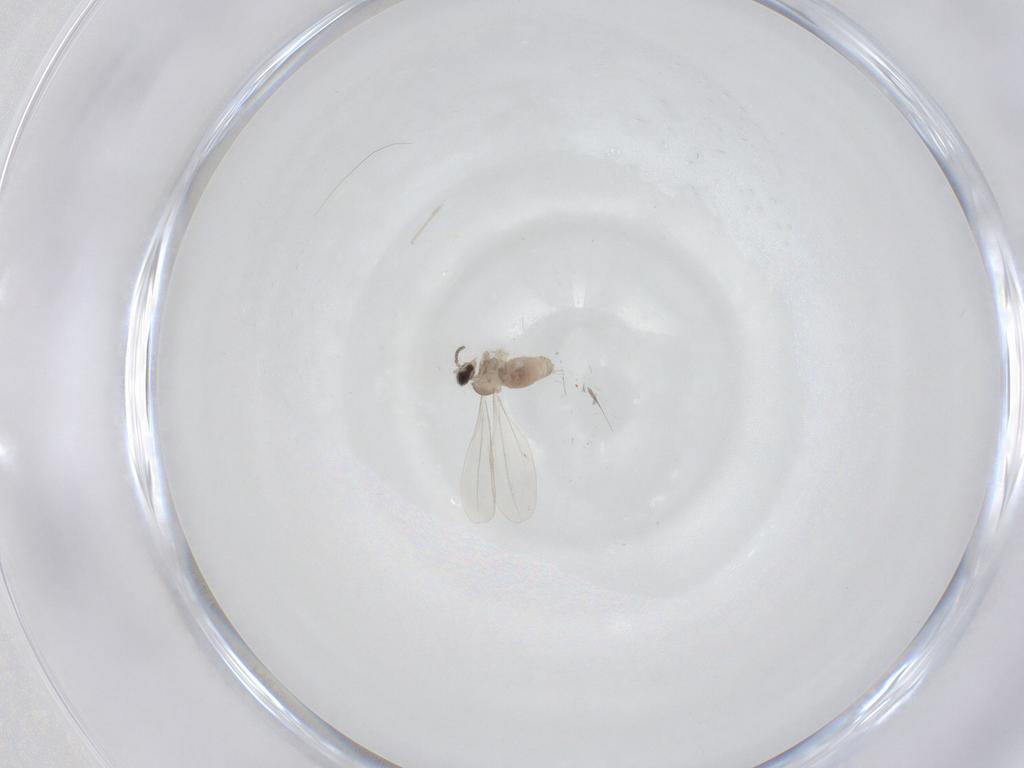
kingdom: Animalia
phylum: Arthropoda
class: Insecta
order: Diptera
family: Cecidomyiidae
